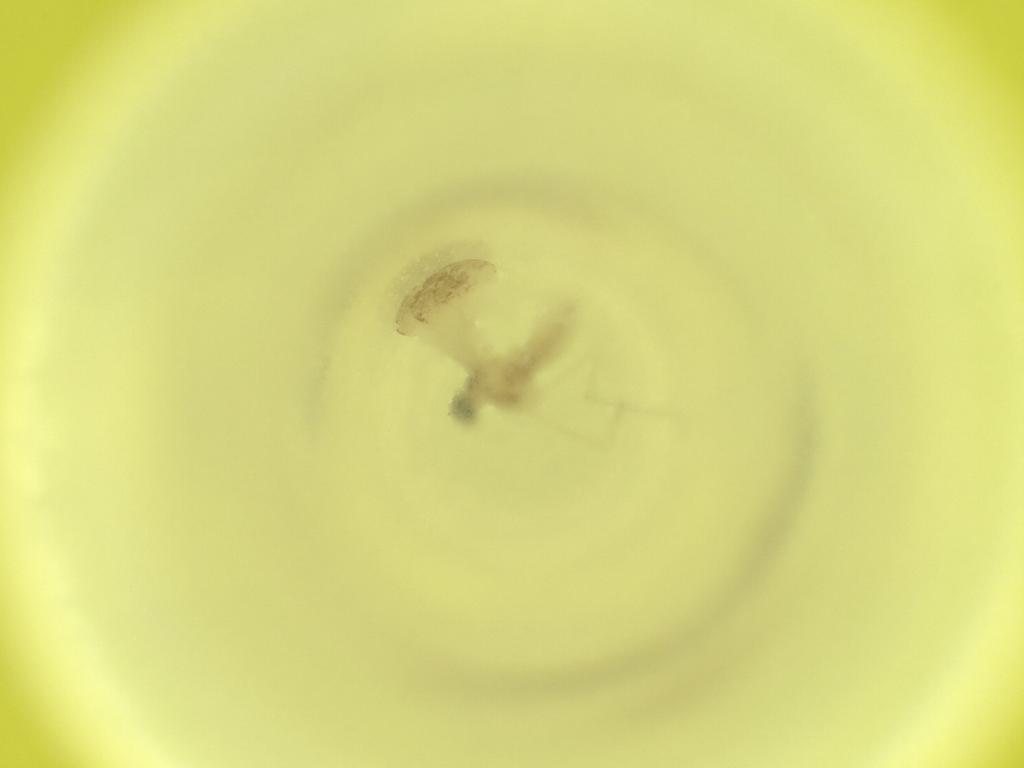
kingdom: Animalia
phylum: Arthropoda
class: Insecta
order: Diptera
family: Cecidomyiidae
